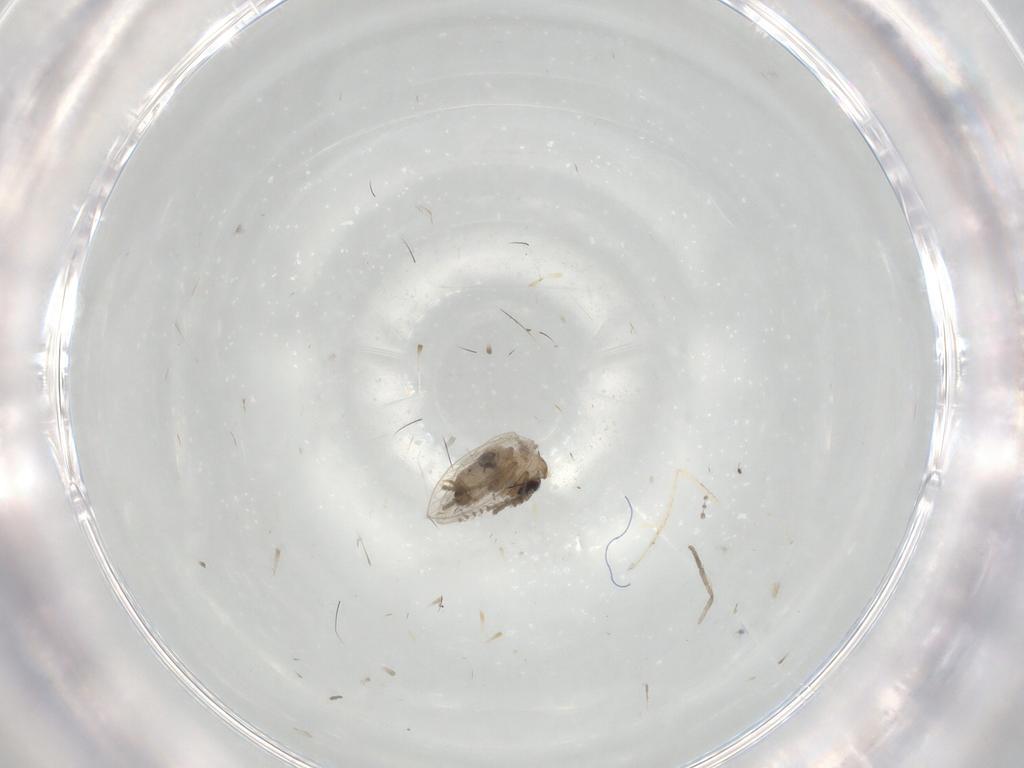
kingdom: Animalia
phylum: Arthropoda
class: Insecta
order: Diptera
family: Psychodidae
